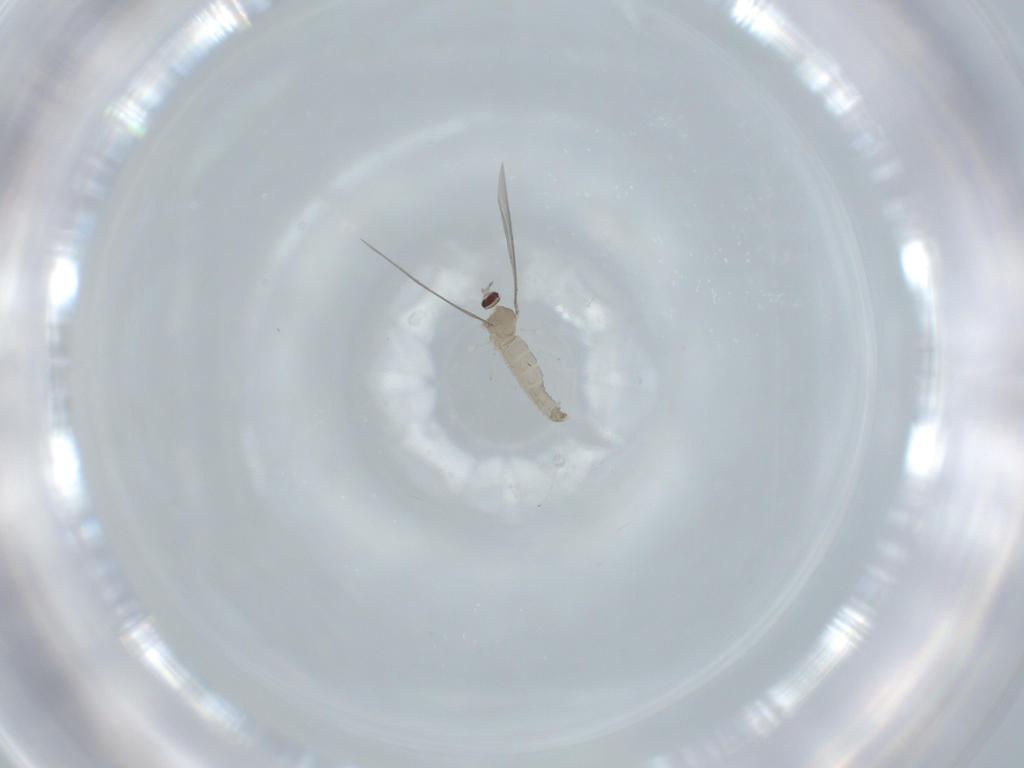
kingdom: Animalia
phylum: Arthropoda
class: Insecta
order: Diptera
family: Cecidomyiidae
